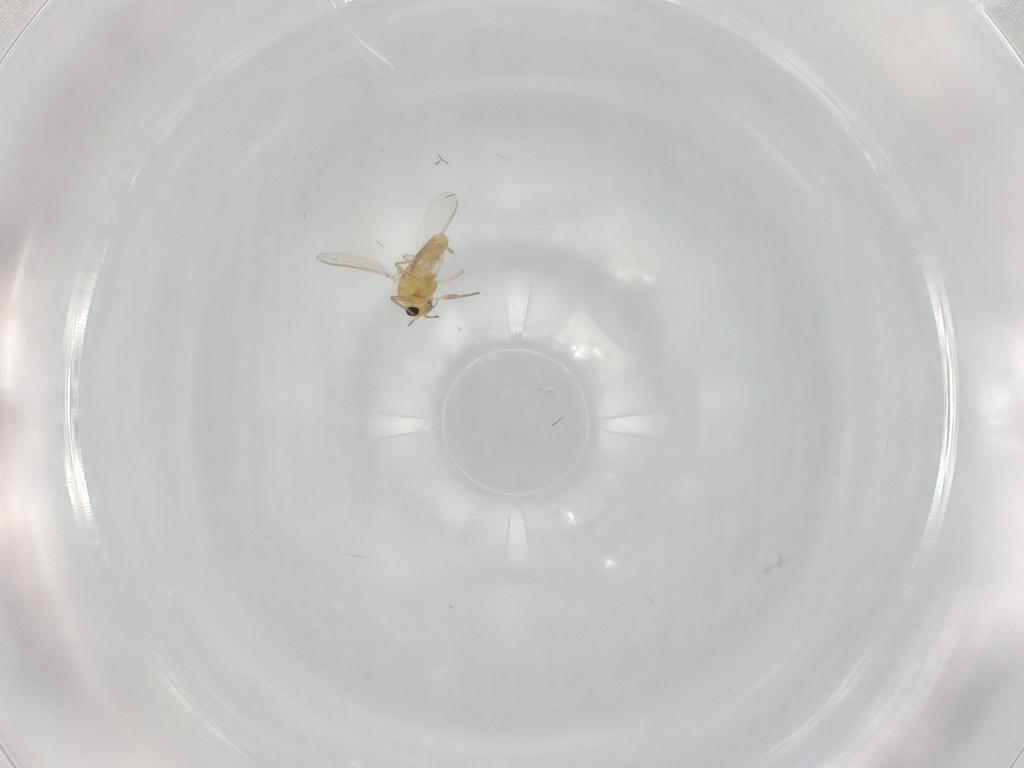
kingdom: Animalia
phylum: Arthropoda
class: Insecta
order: Diptera
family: Chironomidae
